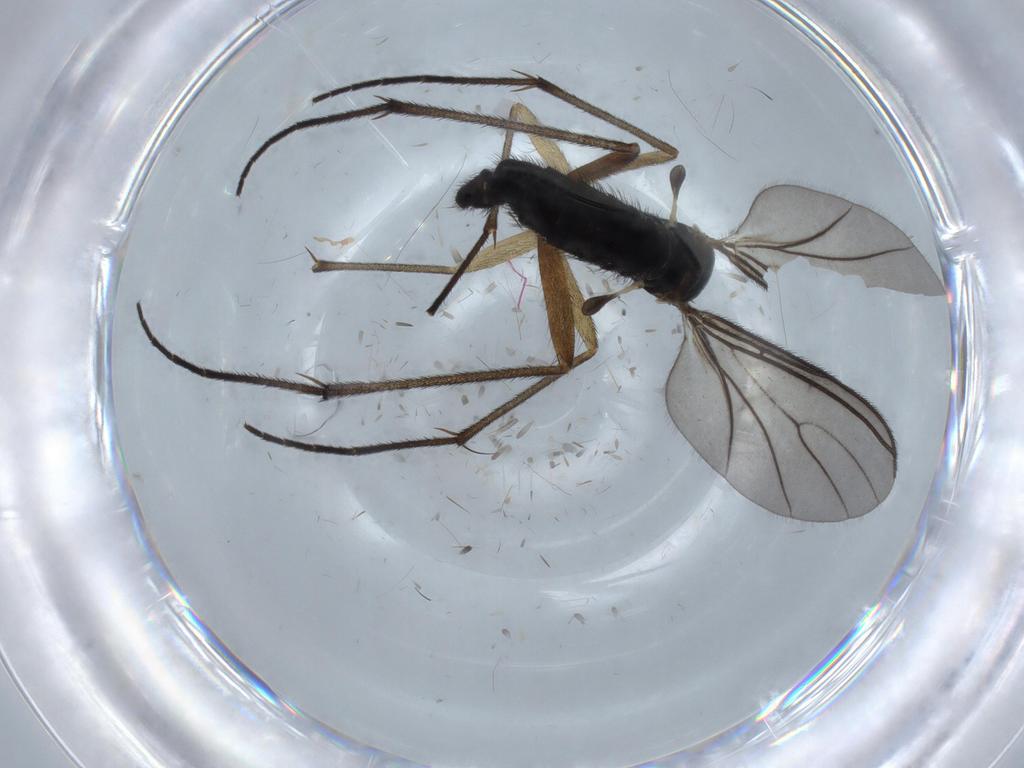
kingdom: Animalia
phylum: Arthropoda
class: Insecta
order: Diptera
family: Sciaridae
